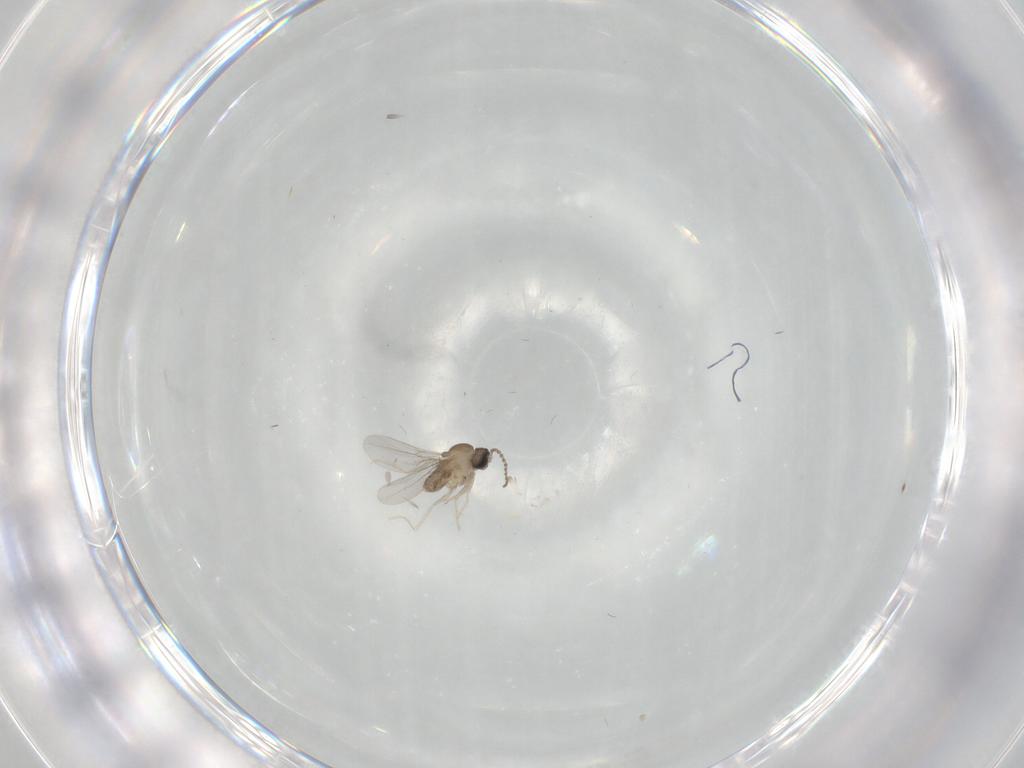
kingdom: Animalia
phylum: Arthropoda
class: Insecta
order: Diptera
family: Cecidomyiidae
